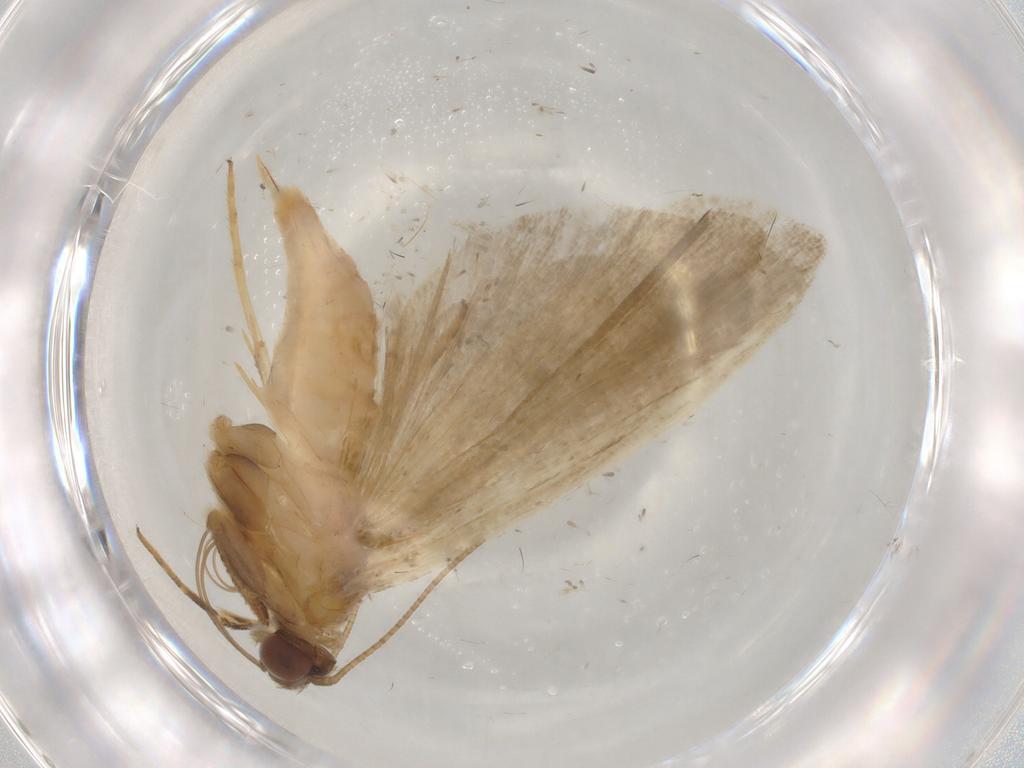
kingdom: Animalia
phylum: Arthropoda
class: Insecta
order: Lepidoptera
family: Noctuidae
